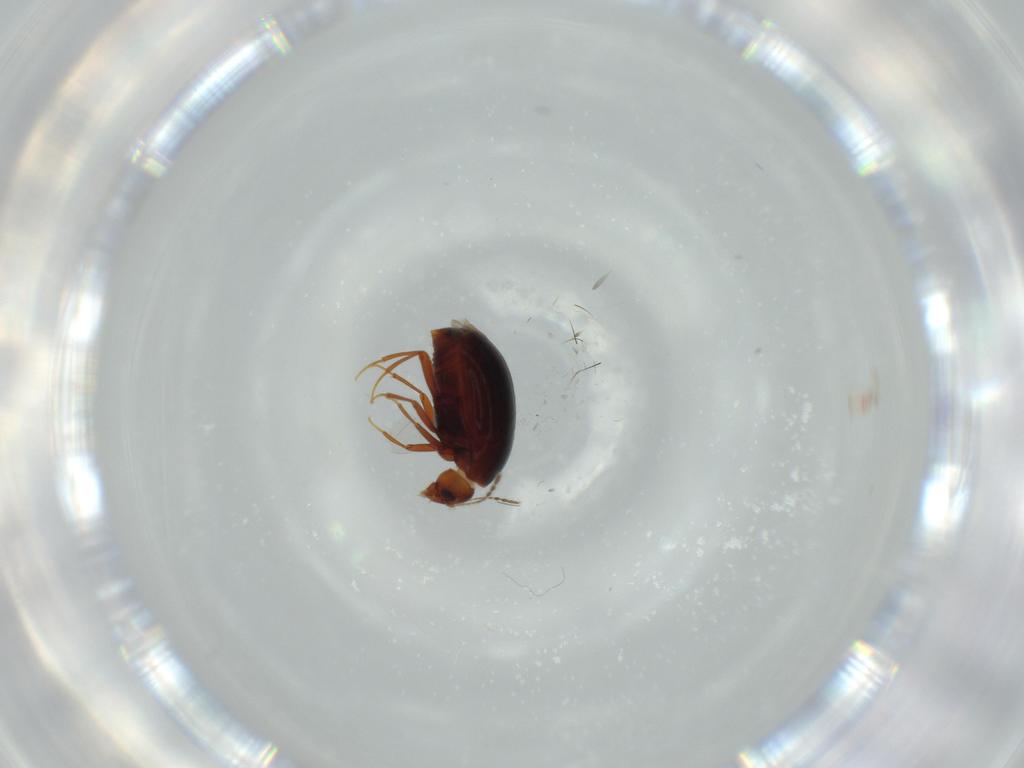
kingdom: Animalia
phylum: Arthropoda
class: Insecta
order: Coleoptera
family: Staphylinidae
